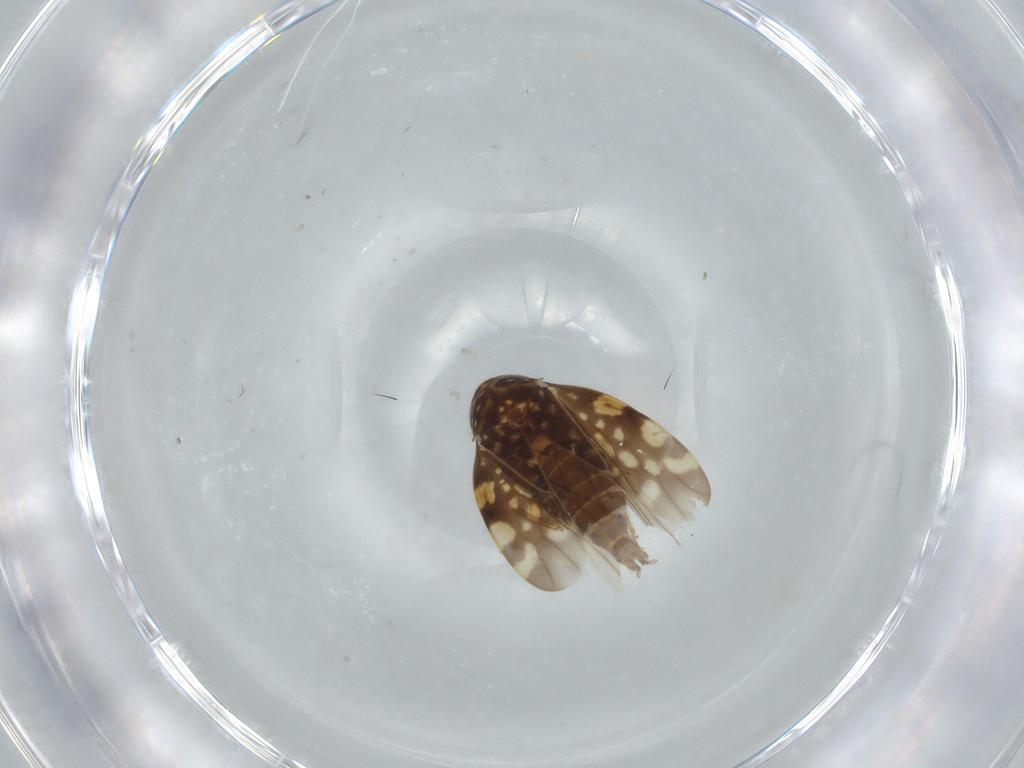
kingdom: Animalia
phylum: Arthropoda
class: Insecta
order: Hemiptera
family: Cicadellidae
